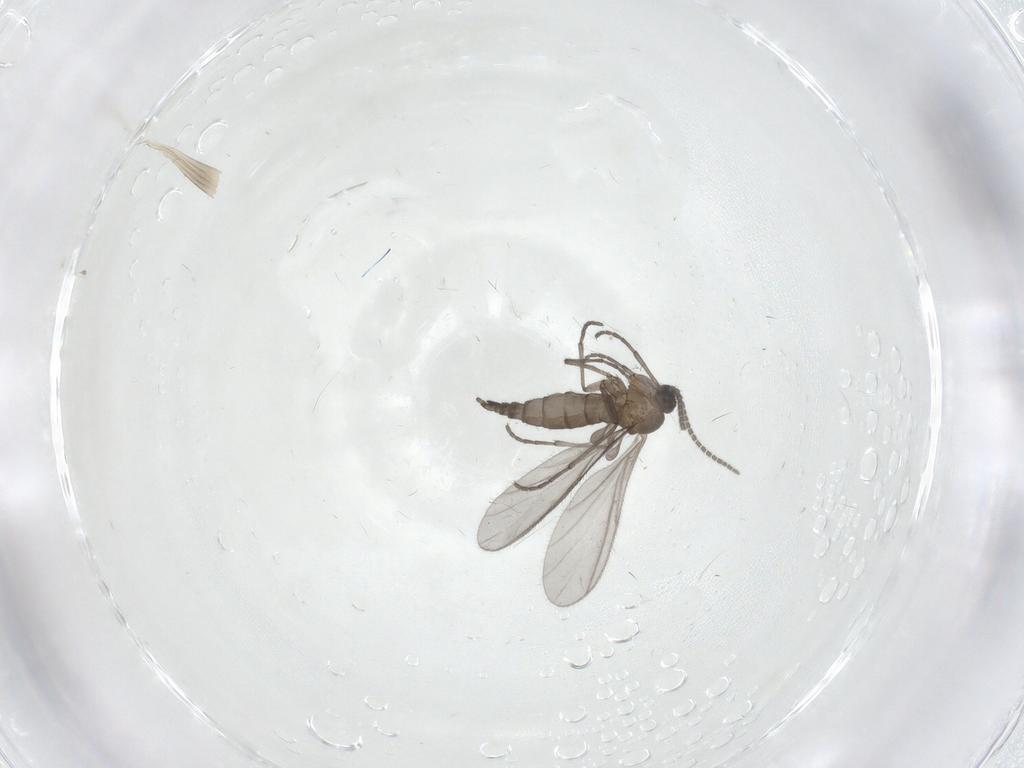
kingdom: Animalia
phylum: Arthropoda
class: Insecta
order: Diptera
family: Sciaridae
